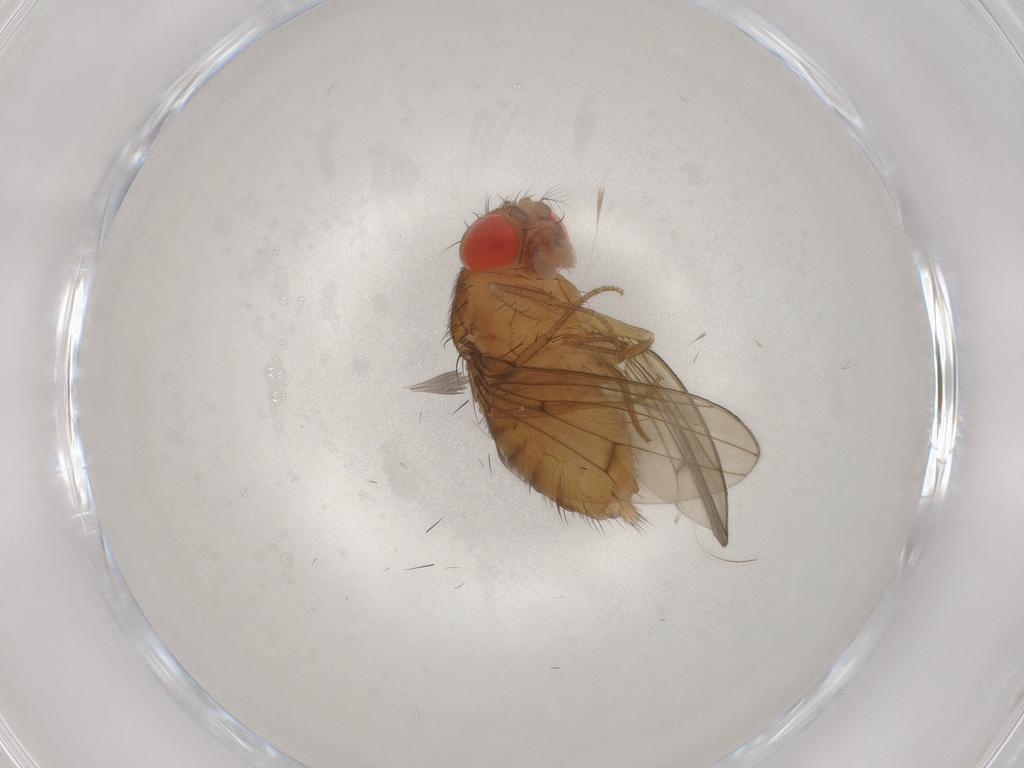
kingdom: Animalia
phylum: Arthropoda
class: Insecta
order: Diptera
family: Drosophilidae
